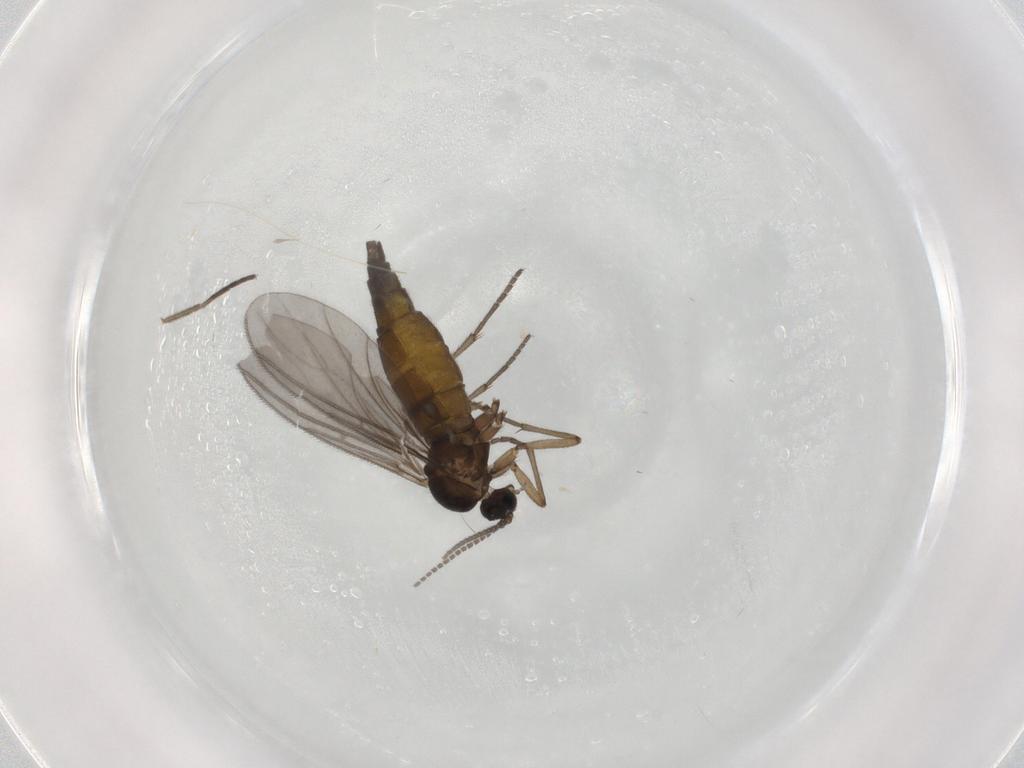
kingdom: Animalia
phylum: Arthropoda
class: Insecta
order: Diptera
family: Sciaridae
